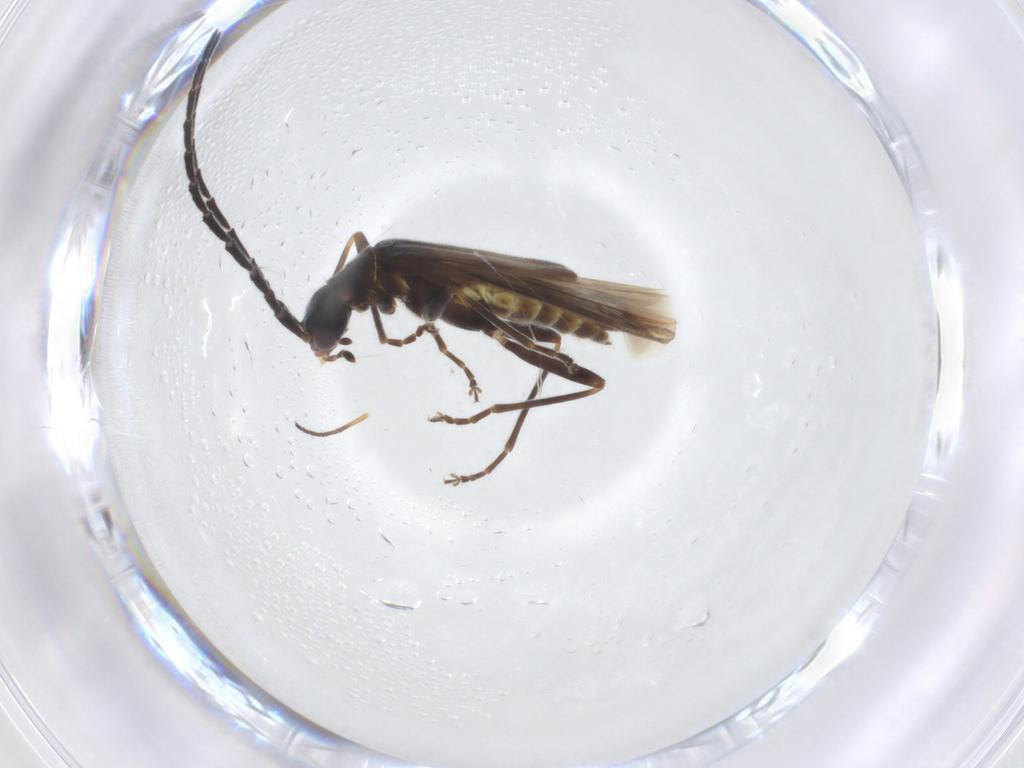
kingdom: Animalia
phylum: Arthropoda
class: Insecta
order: Coleoptera
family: Cantharidae
